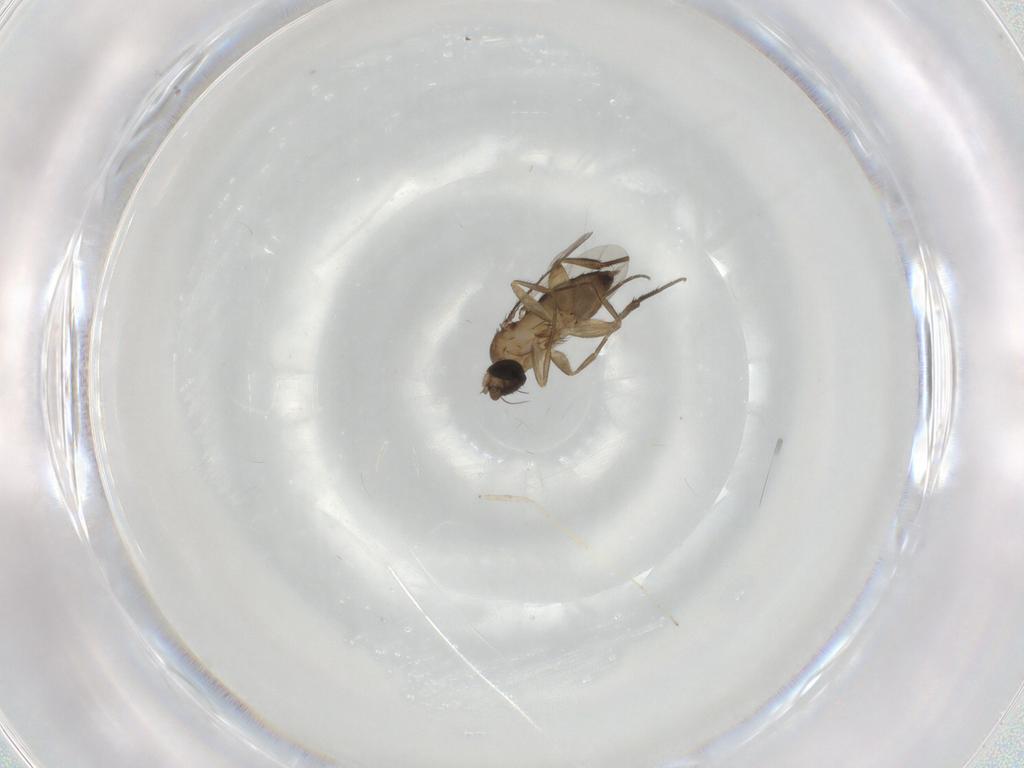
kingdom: Animalia
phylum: Arthropoda
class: Insecta
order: Diptera
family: Phoridae
